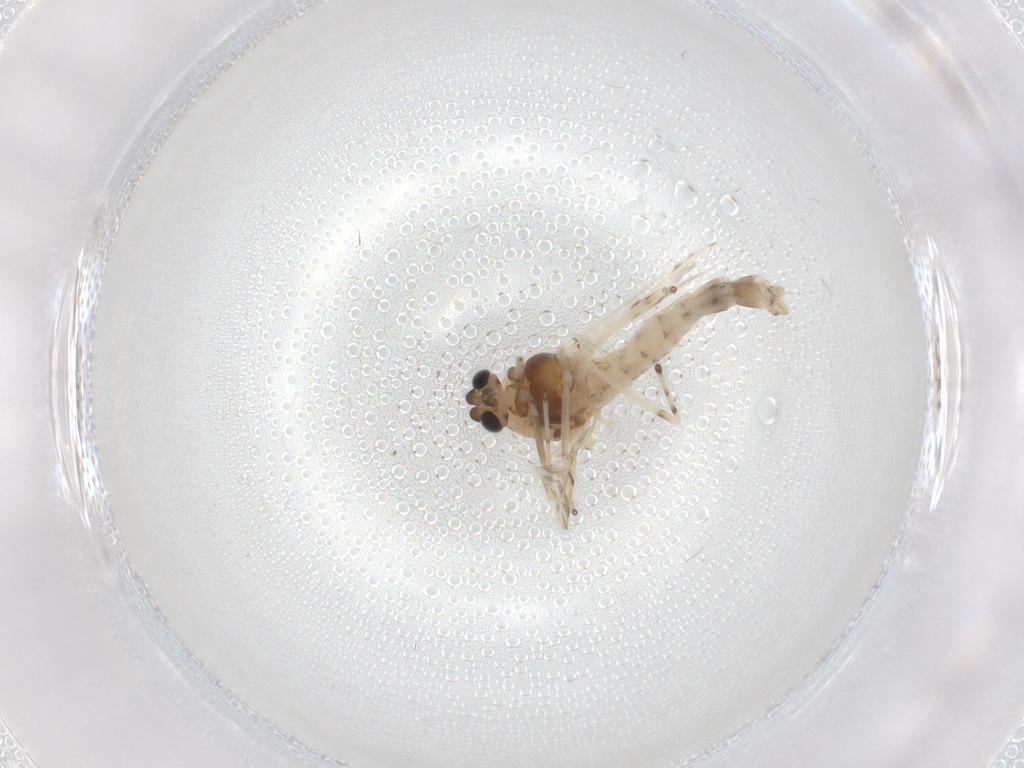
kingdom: Animalia
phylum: Arthropoda
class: Insecta
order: Diptera
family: Chironomidae
